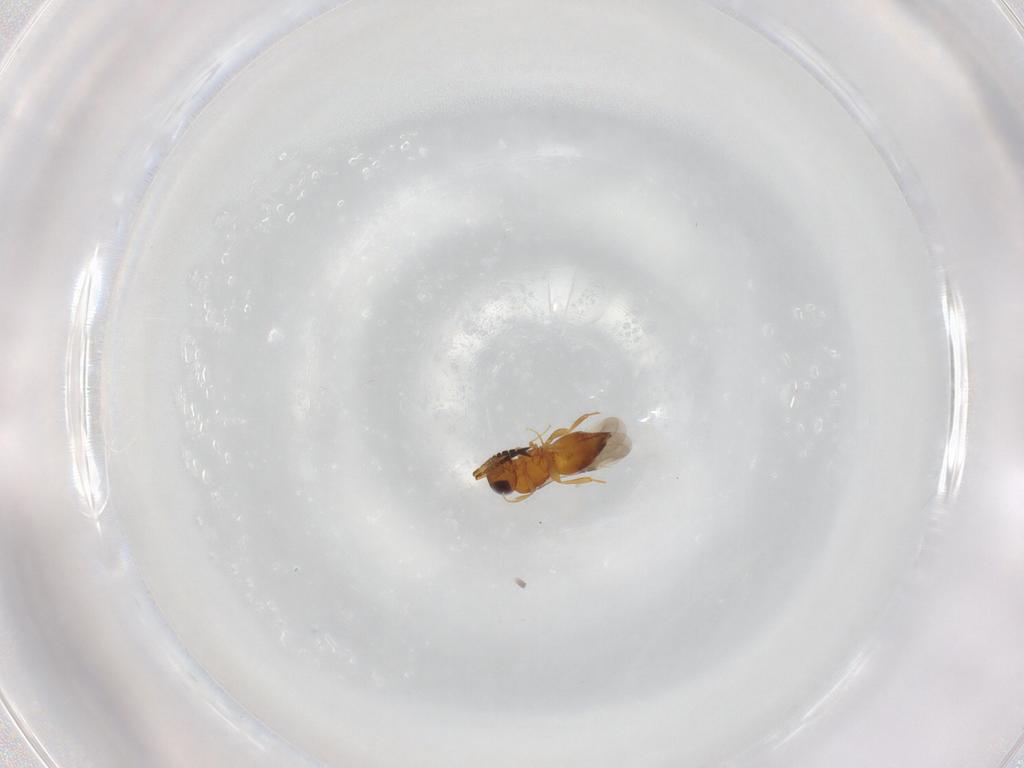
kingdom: Animalia
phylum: Arthropoda
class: Insecta
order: Hymenoptera
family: Ceraphronidae
